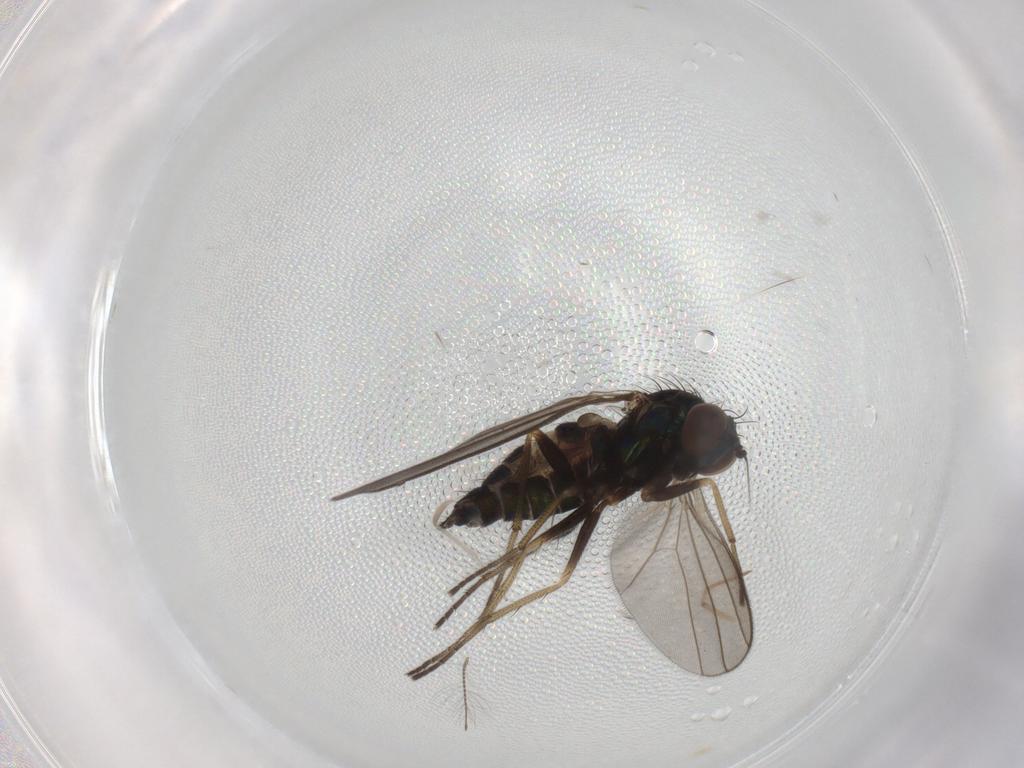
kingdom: Animalia
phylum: Arthropoda
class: Insecta
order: Diptera
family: Dolichopodidae
